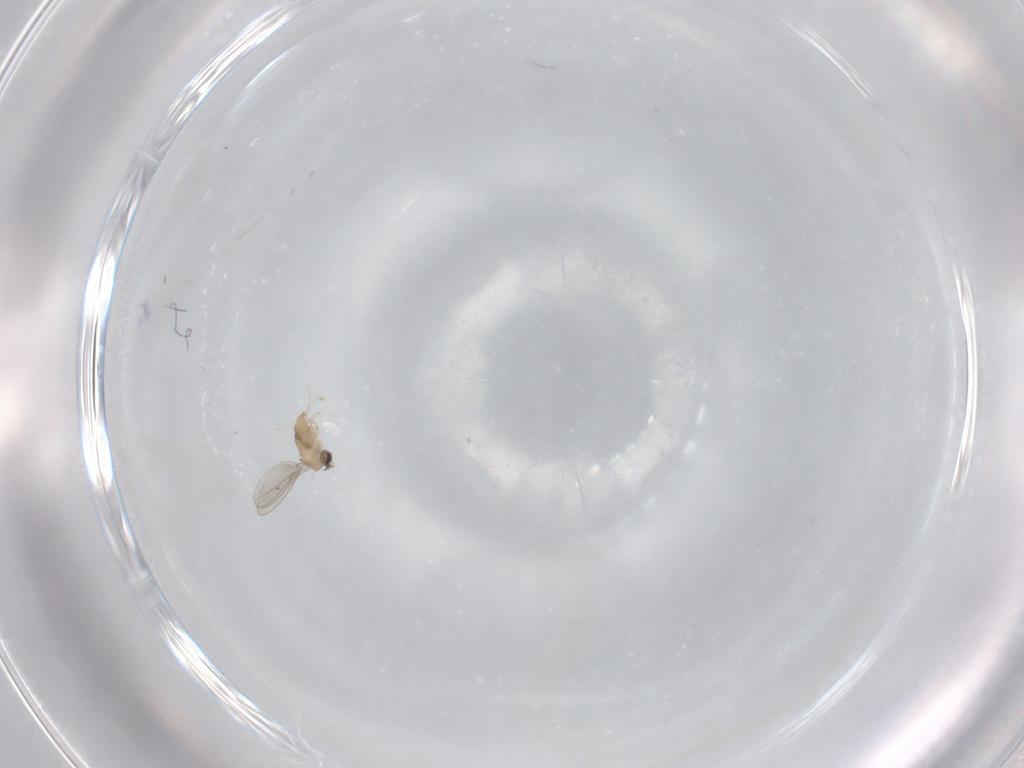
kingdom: Animalia
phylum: Arthropoda
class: Insecta
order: Diptera
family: Cecidomyiidae
